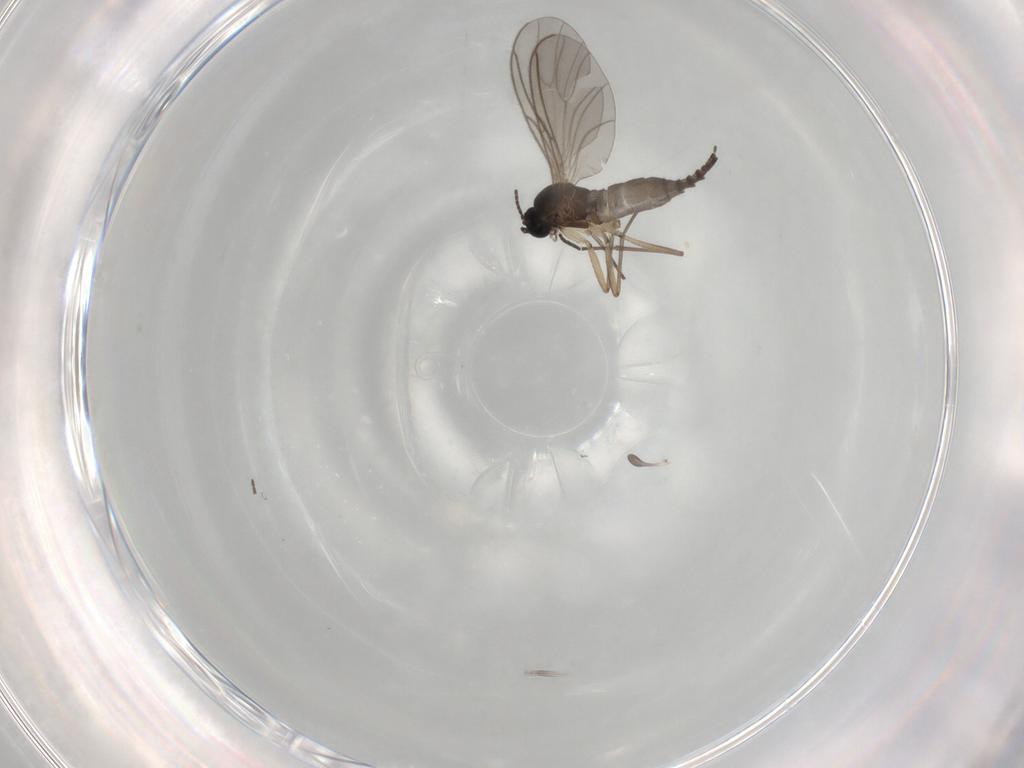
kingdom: Animalia
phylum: Arthropoda
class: Insecta
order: Diptera
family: Sciaridae
